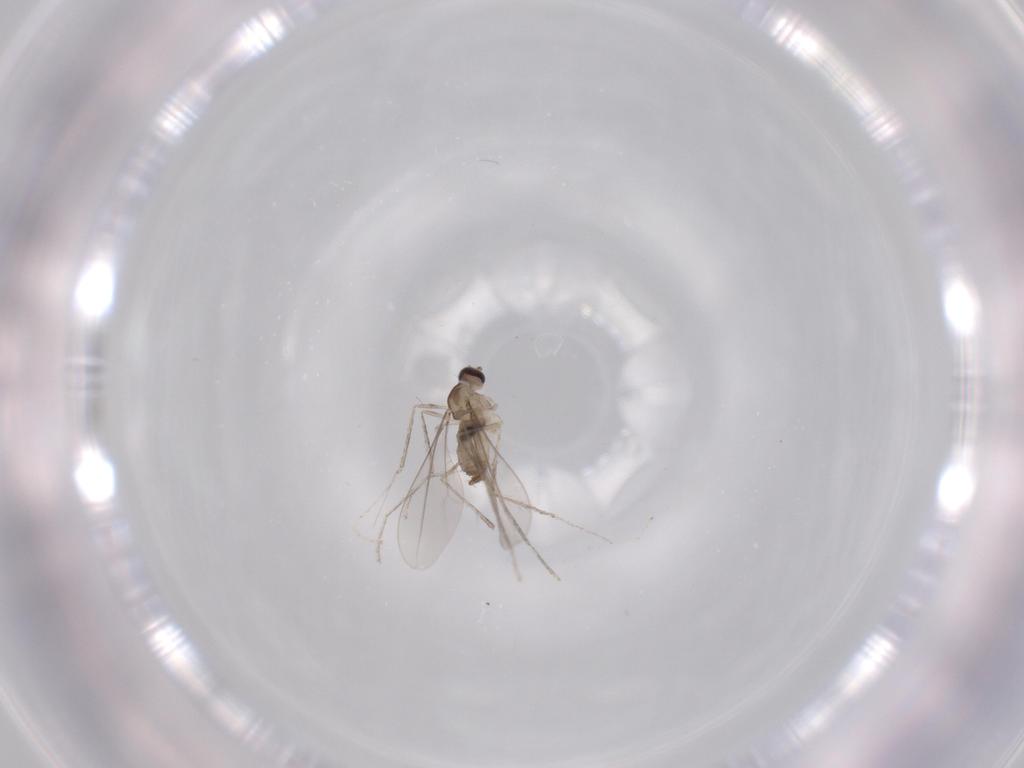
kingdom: Animalia
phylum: Arthropoda
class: Insecta
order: Diptera
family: Cecidomyiidae
